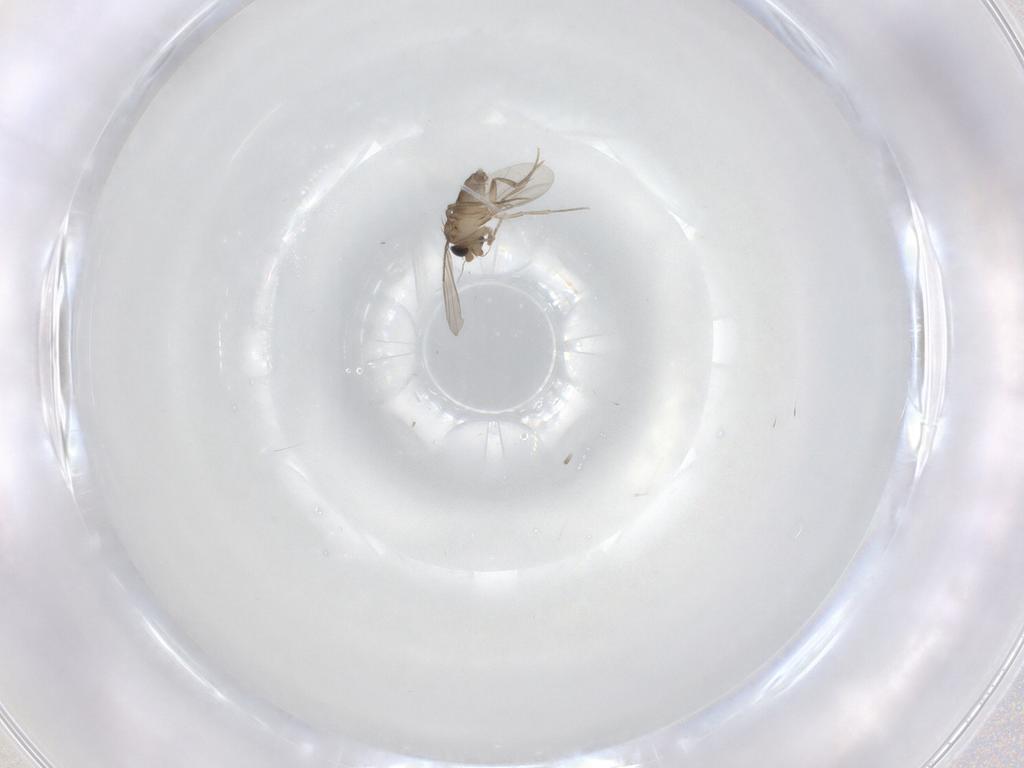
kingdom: Animalia
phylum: Arthropoda
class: Insecta
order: Diptera
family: Phoridae
